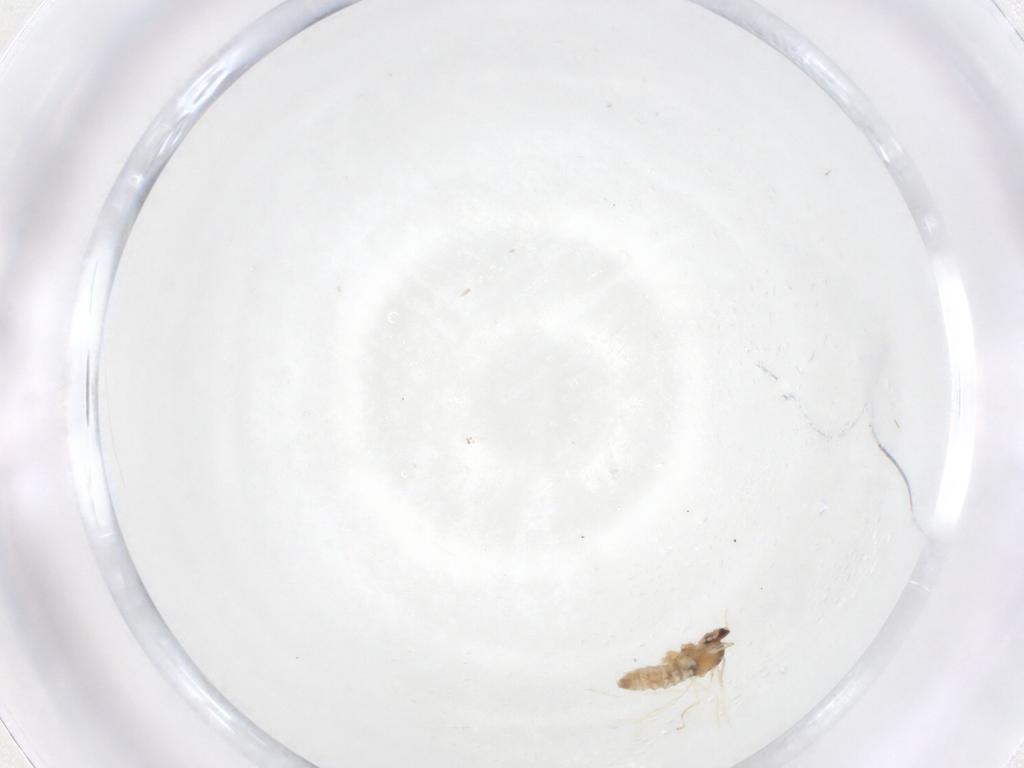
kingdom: Animalia
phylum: Arthropoda
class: Insecta
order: Diptera
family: Cecidomyiidae
